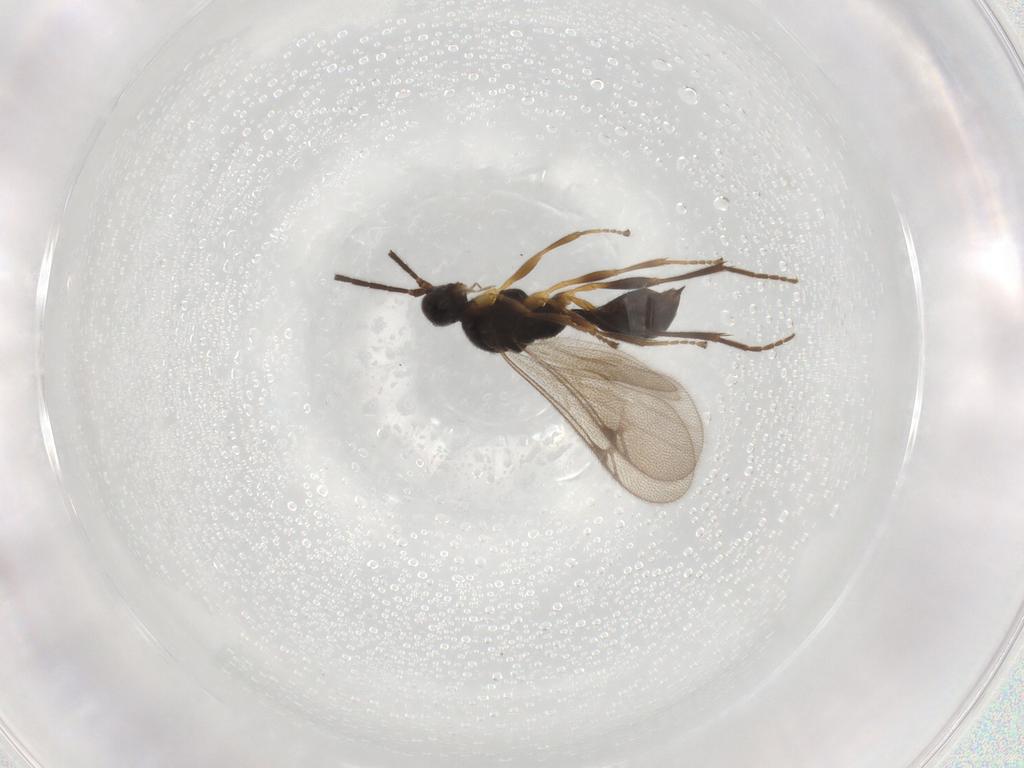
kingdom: Animalia
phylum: Arthropoda
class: Insecta
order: Hymenoptera
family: Proctotrupidae
